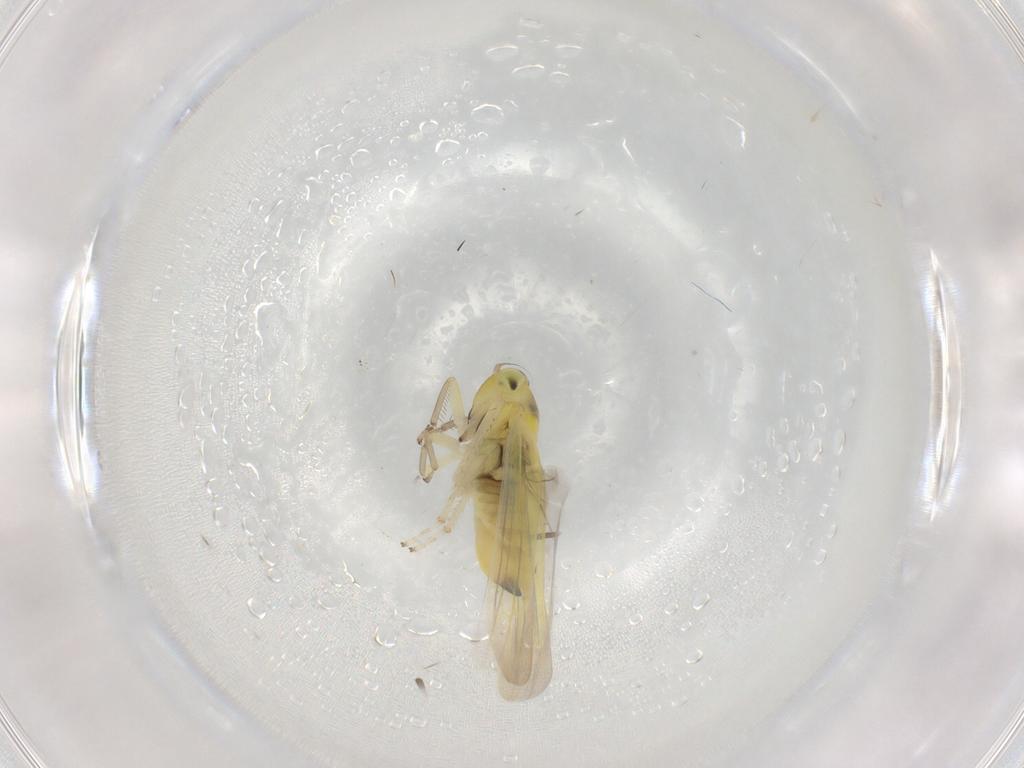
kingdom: Animalia
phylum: Arthropoda
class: Insecta
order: Hemiptera
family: Cicadellidae
